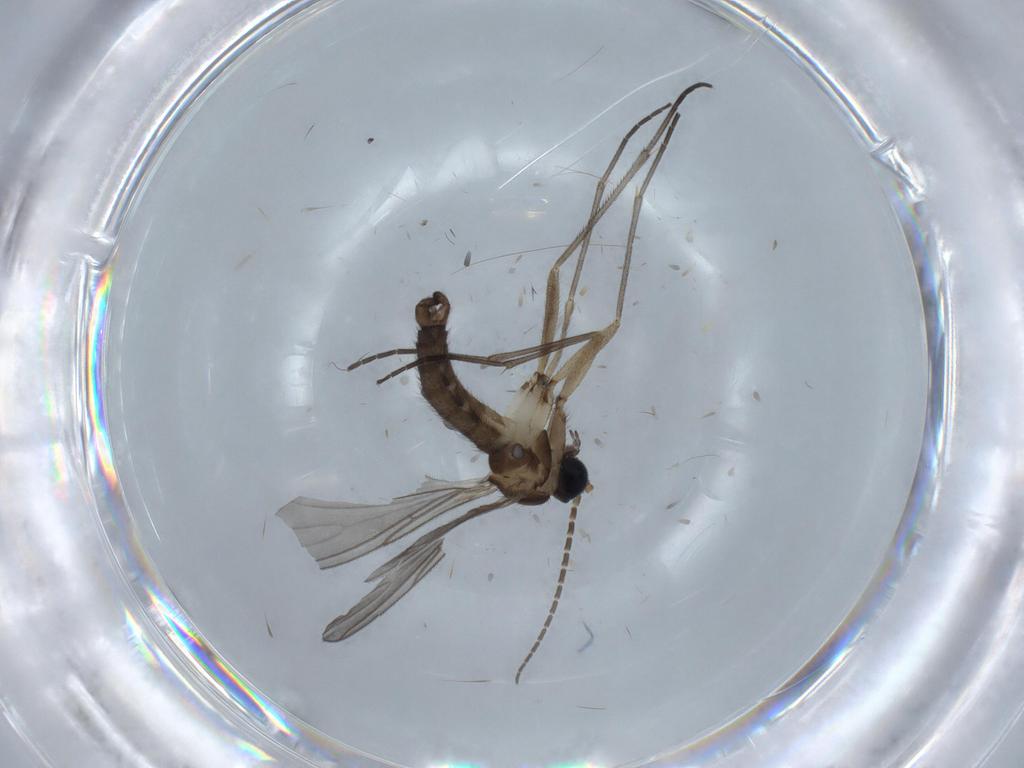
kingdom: Animalia
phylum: Arthropoda
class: Insecta
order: Diptera
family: Sciaridae
